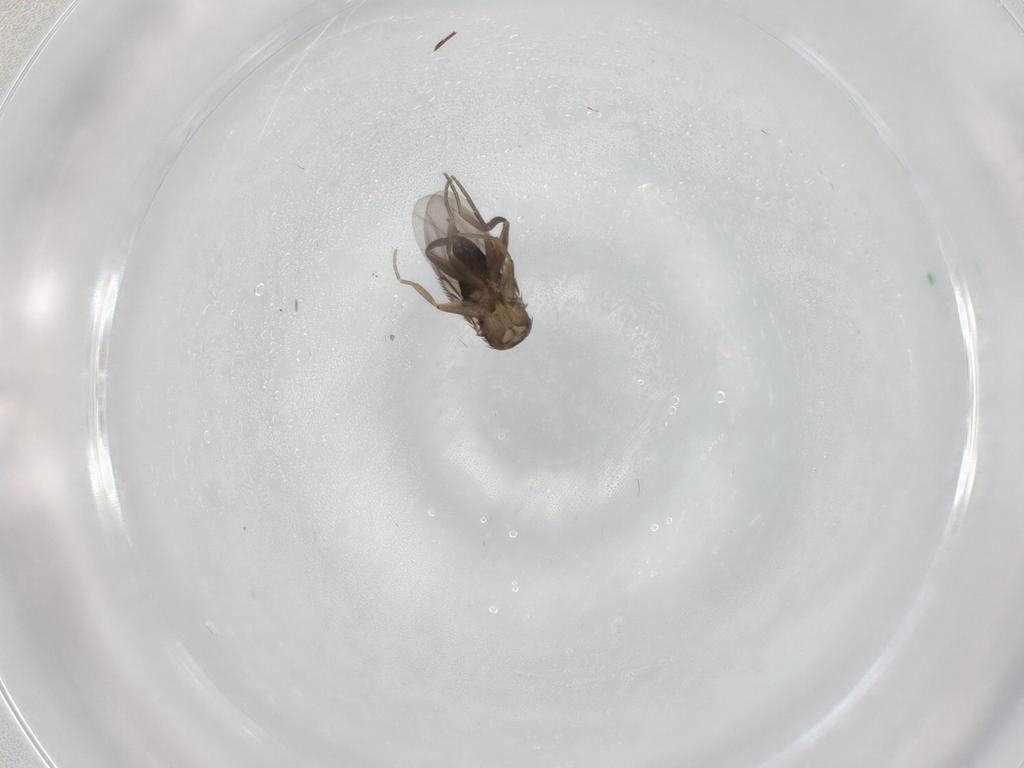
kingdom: Animalia
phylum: Arthropoda
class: Insecta
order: Diptera
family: Phoridae
